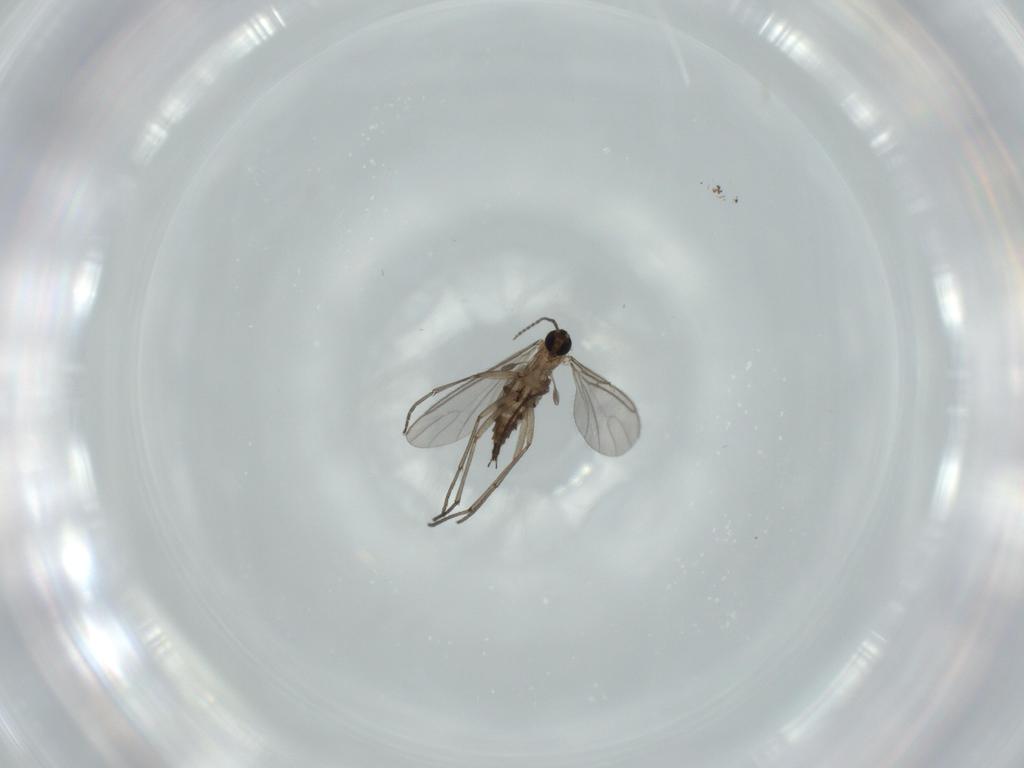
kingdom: Animalia
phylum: Arthropoda
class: Insecta
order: Diptera
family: Sciaridae
